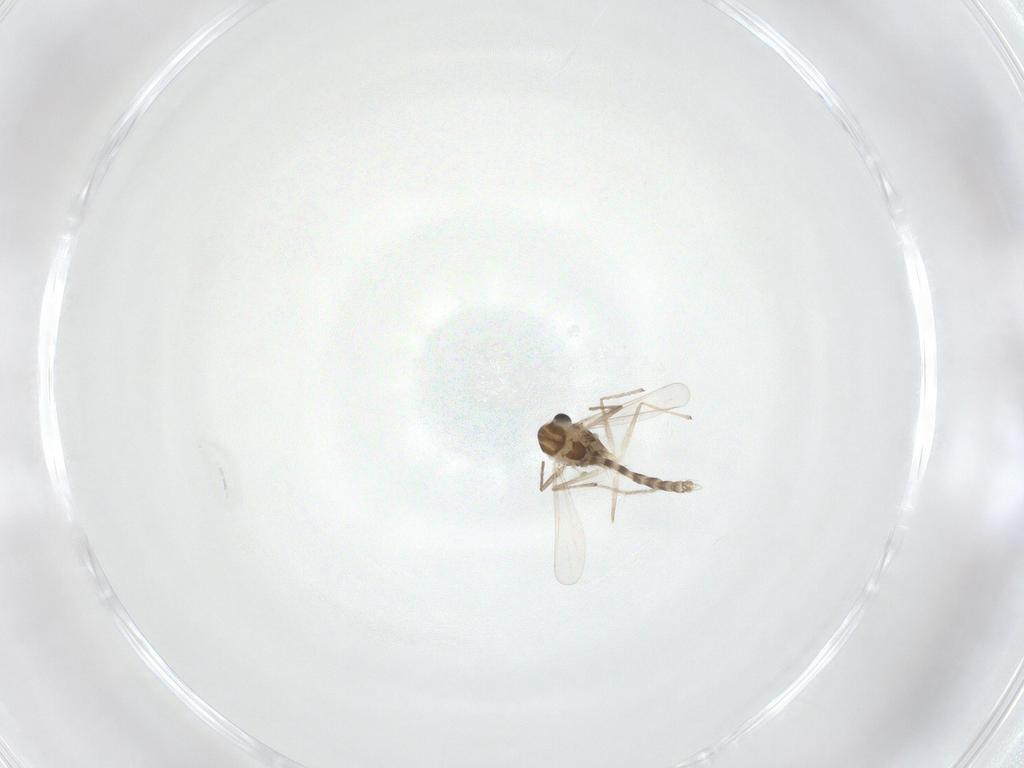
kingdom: Animalia
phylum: Arthropoda
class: Insecta
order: Diptera
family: Chironomidae
